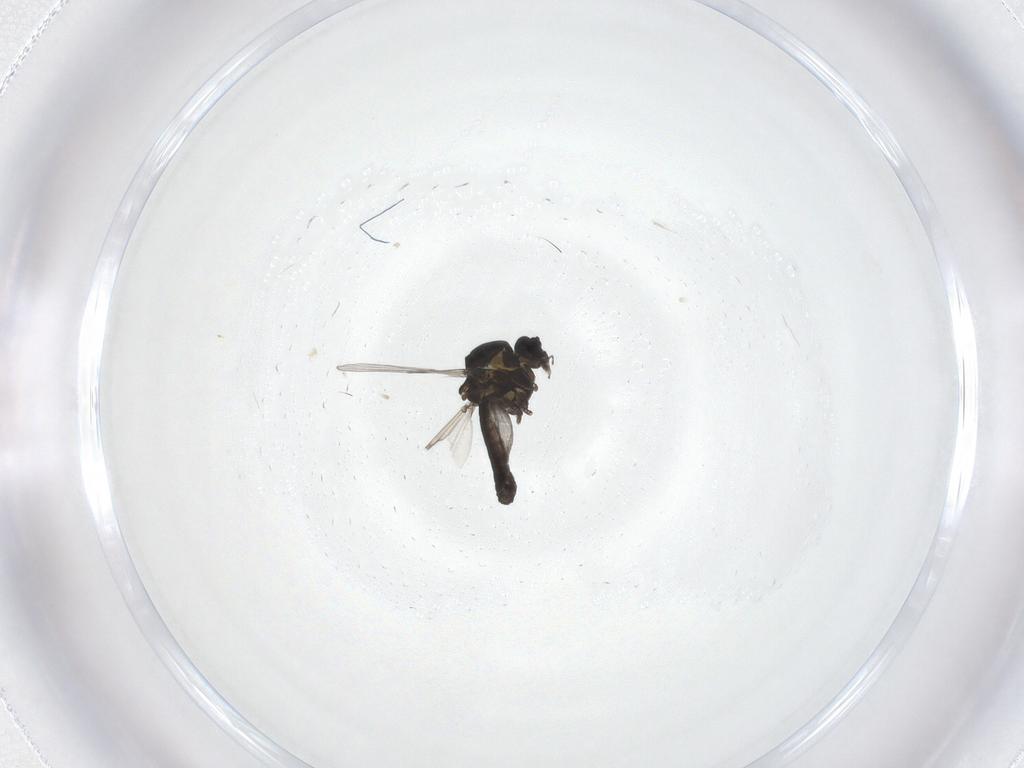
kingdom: Animalia
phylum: Arthropoda
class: Insecta
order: Diptera
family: Ceratopogonidae
